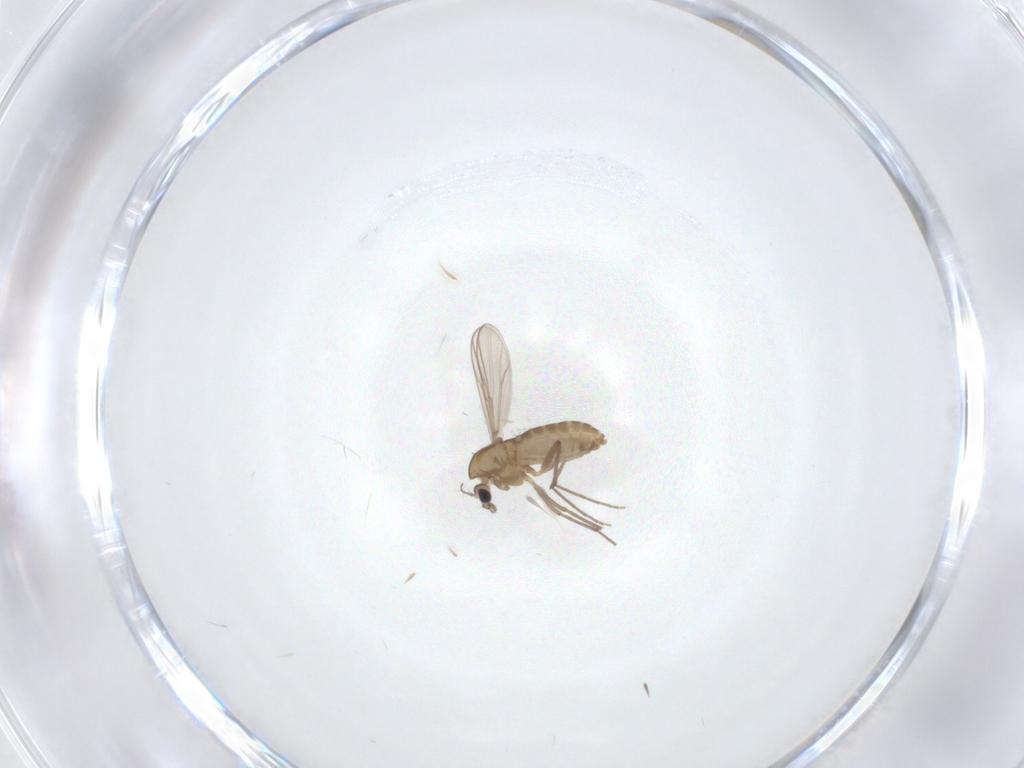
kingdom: Animalia
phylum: Arthropoda
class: Insecta
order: Diptera
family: Chironomidae
